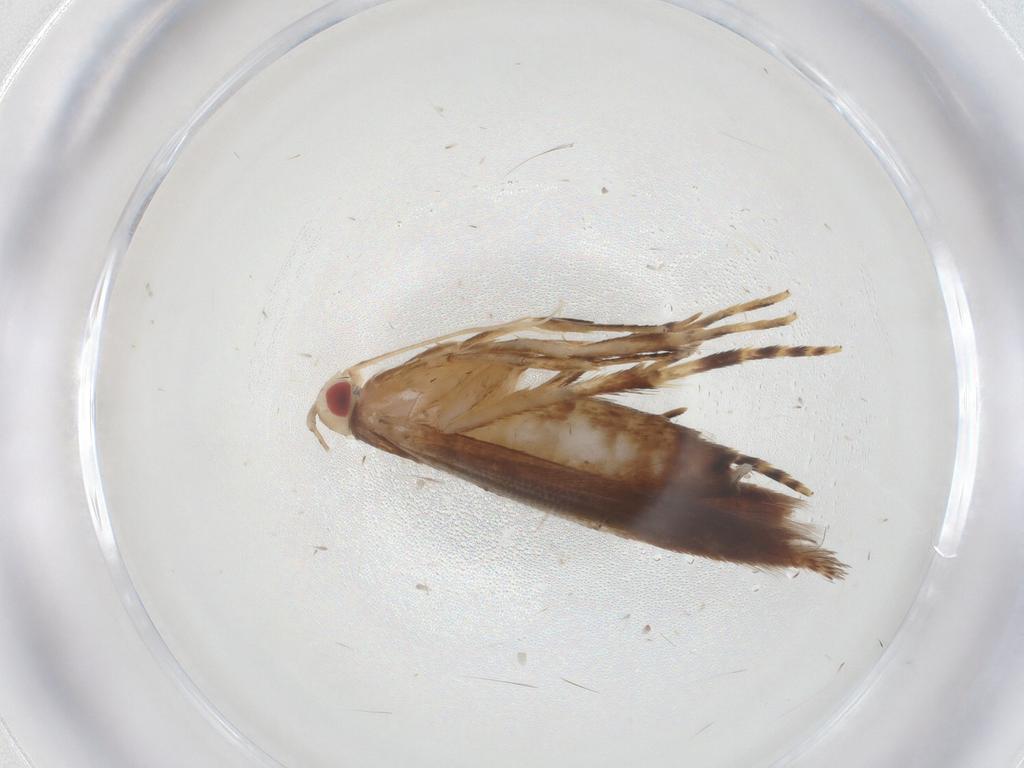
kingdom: Animalia
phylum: Arthropoda
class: Insecta
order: Lepidoptera
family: Cosmopterigidae
